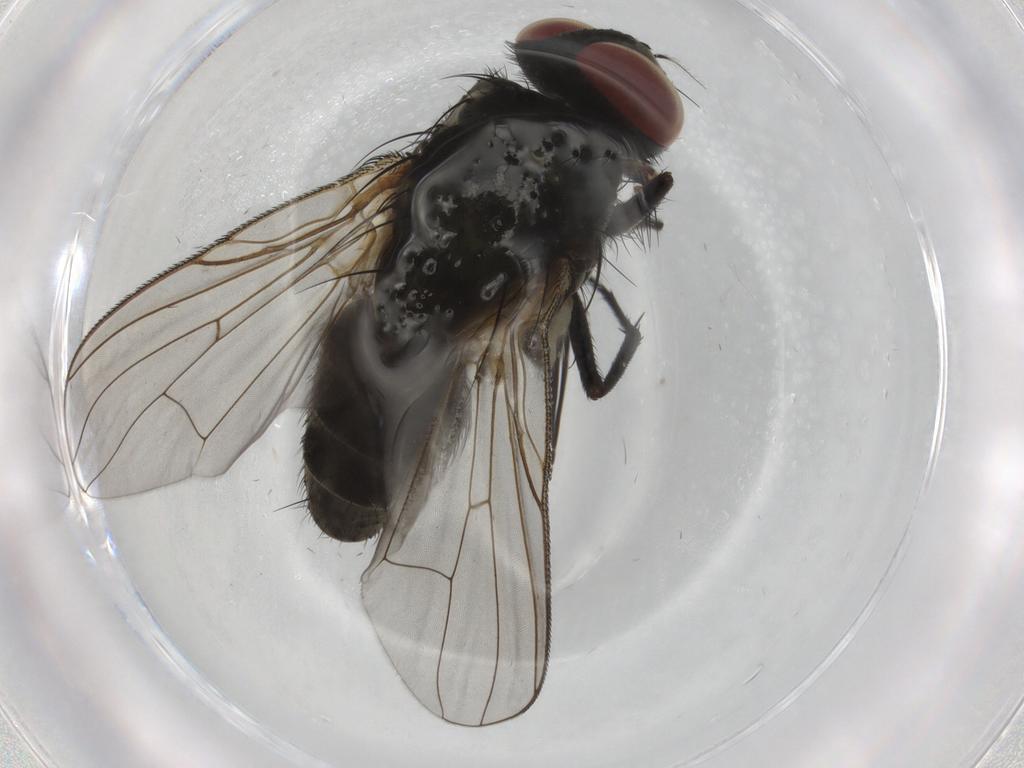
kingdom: Animalia
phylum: Arthropoda
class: Insecta
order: Diptera
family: Muscidae
